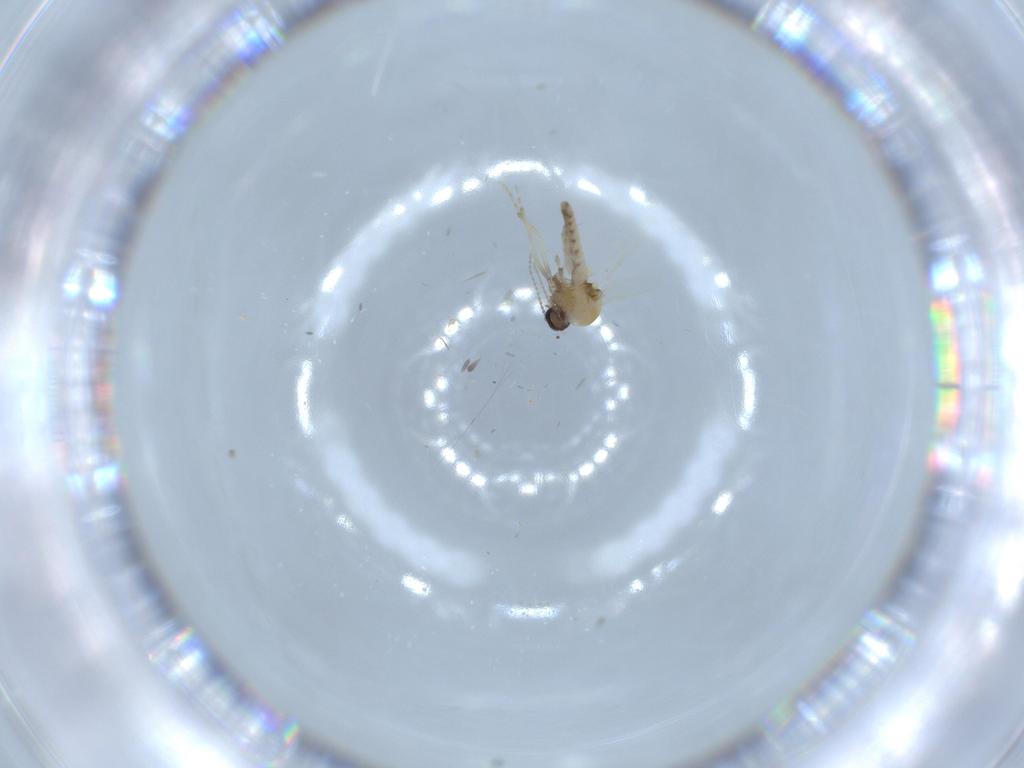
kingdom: Animalia
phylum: Arthropoda
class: Insecta
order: Diptera
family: Ceratopogonidae
